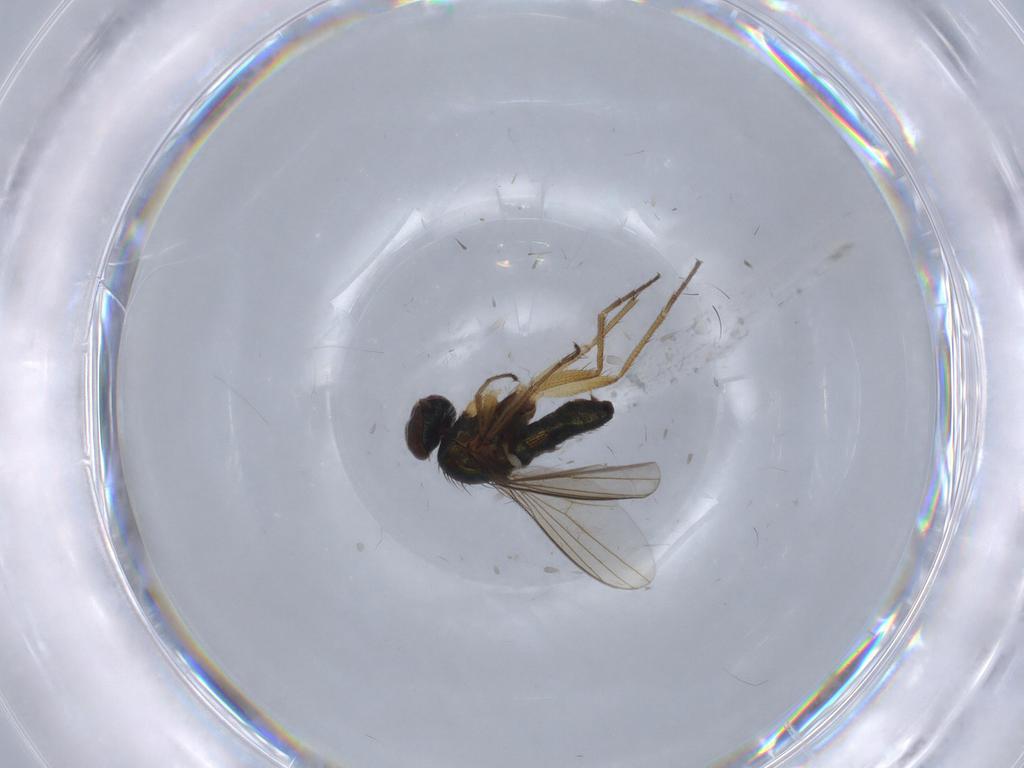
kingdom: Animalia
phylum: Arthropoda
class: Insecta
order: Diptera
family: Dolichopodidae
